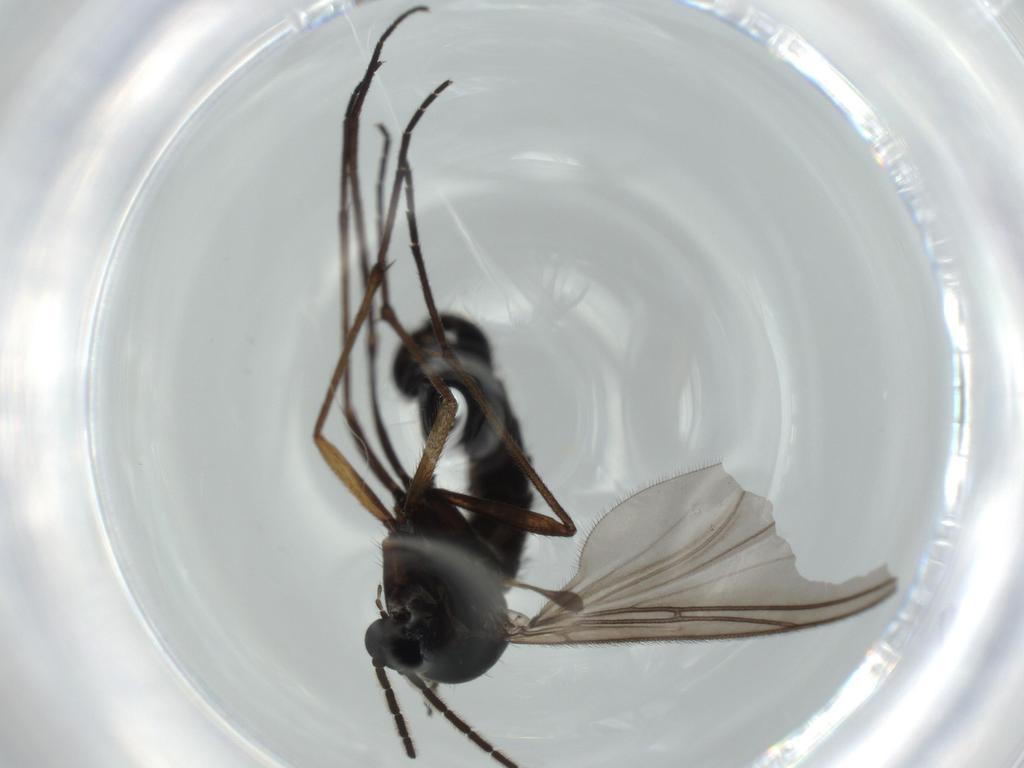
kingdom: Animalia
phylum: Arthropoda
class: Insecta
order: Diptera
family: Sciaridae
